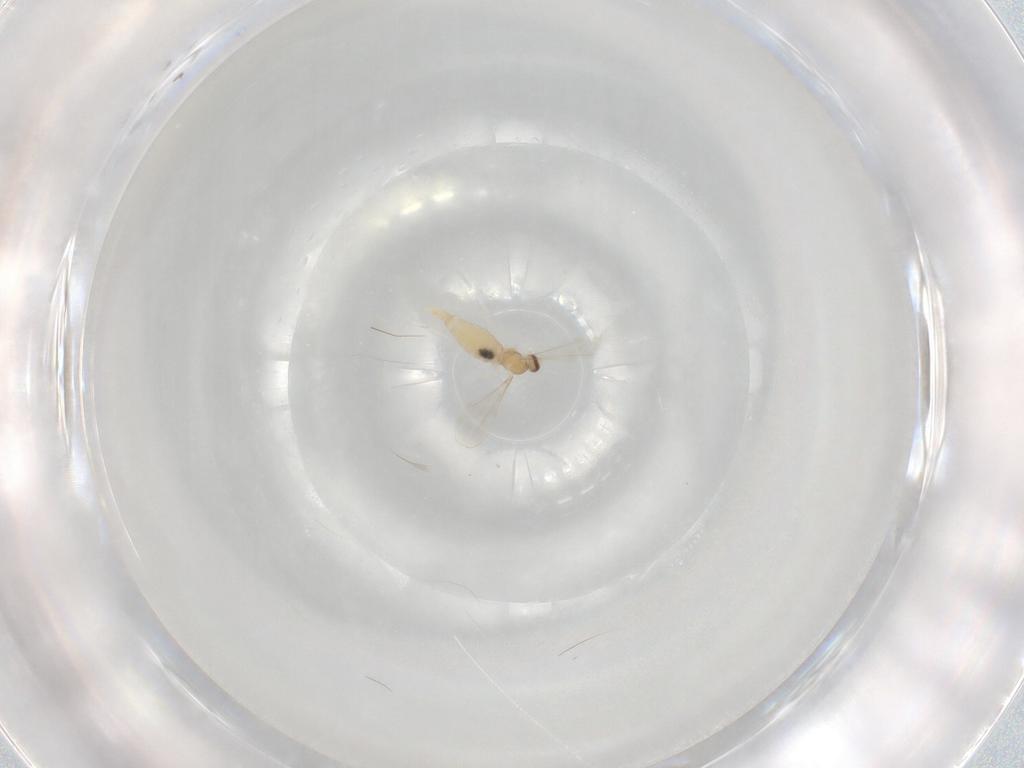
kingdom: Animalia
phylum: Arthropoda
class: Insecta
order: Diptera
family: Cecidomyiidae
